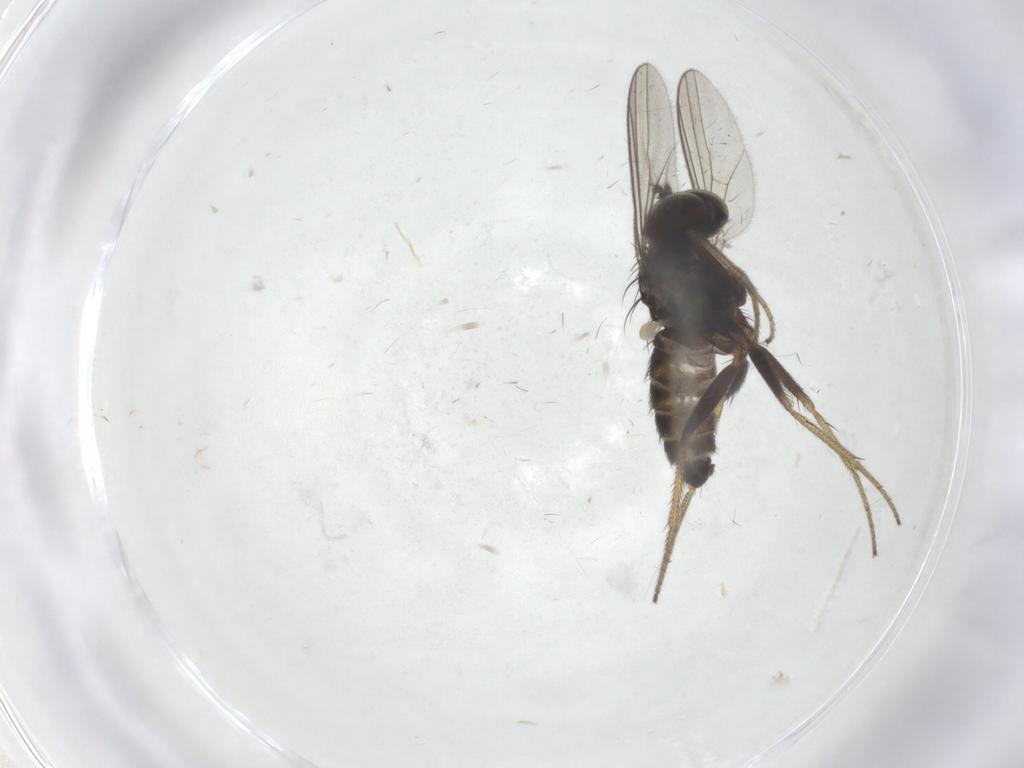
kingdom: Animalia
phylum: Arthropoda
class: Insecta
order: Diptera
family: Dolichopodidae
